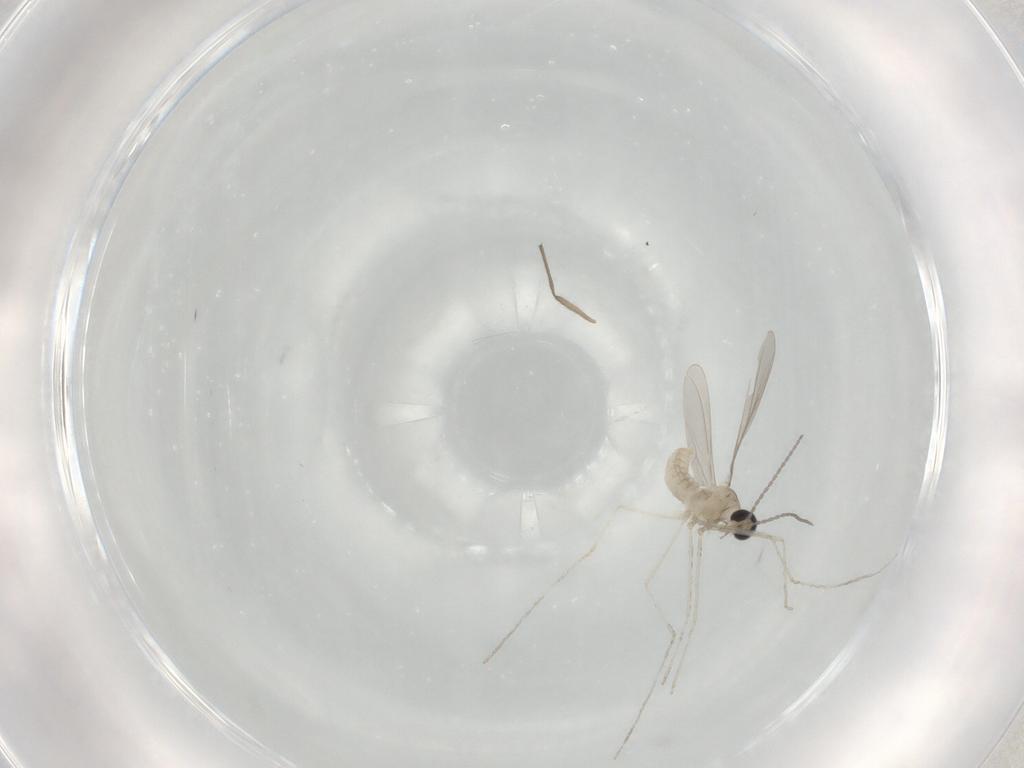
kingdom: Animalia
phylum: Arthropoda
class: Insecta
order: Diptera
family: Cecidomyiidae
